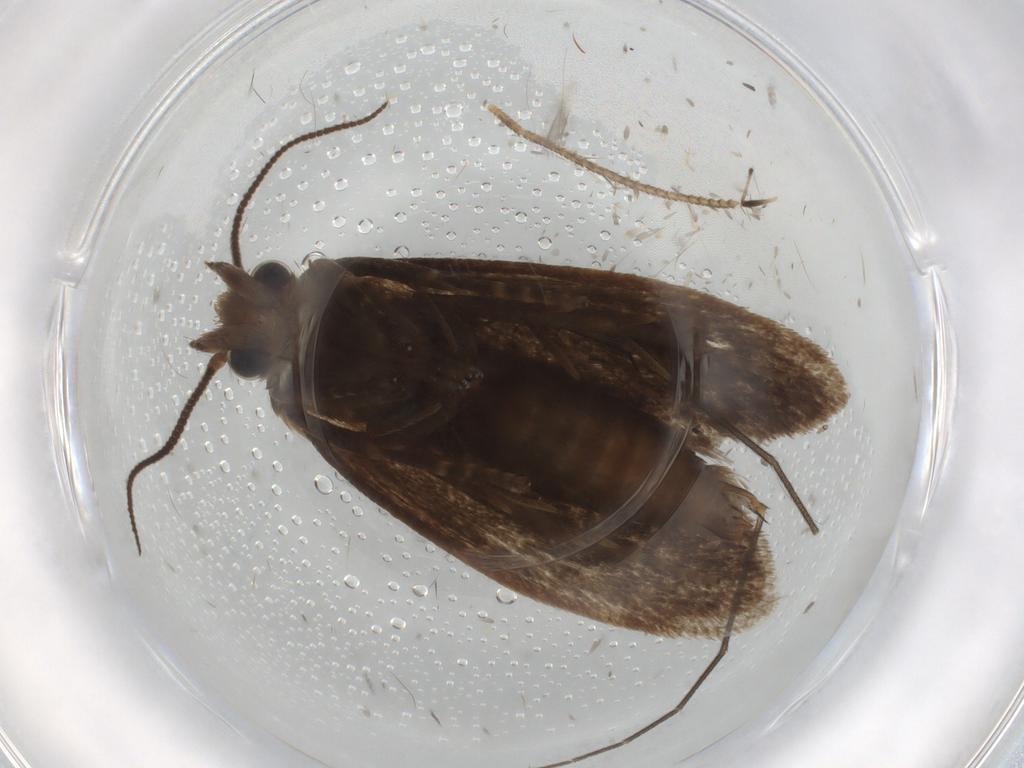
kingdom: Animalia
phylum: Arthropoda
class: Insecta
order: Lepidoptera
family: Tineidae
